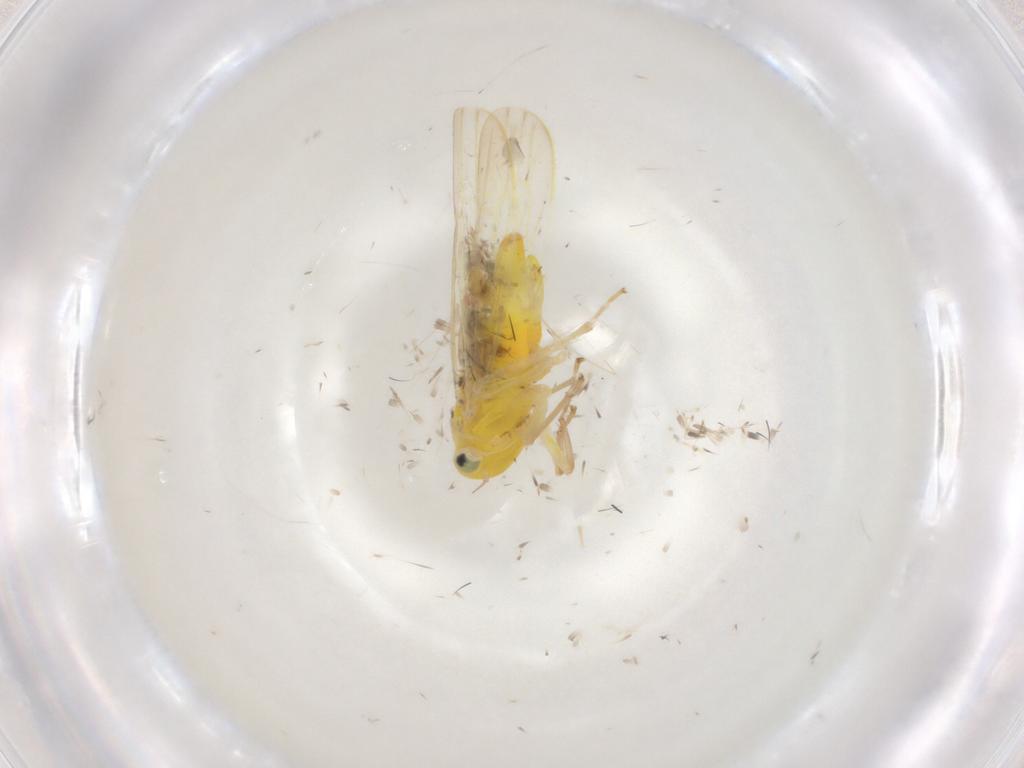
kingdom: Animalia
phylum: Arthropoda
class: Insecta
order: Hemiptera
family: Cicadellidae
